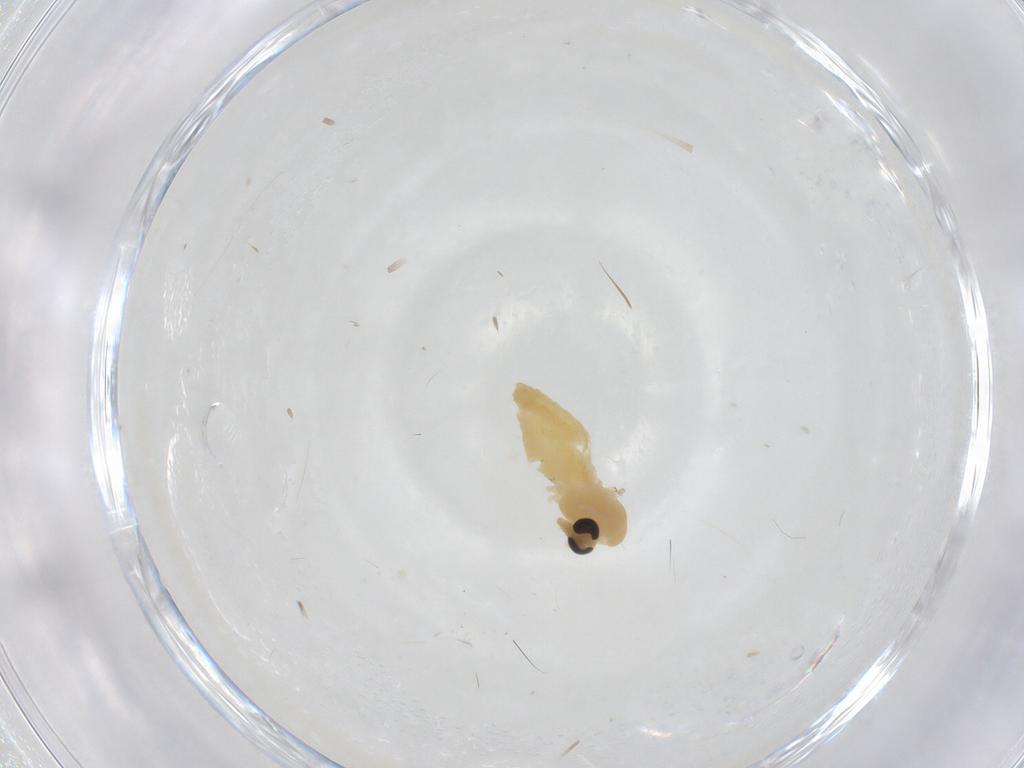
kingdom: Animalia
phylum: Arthropoda
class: Insecta
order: Diptera
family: Chironomidae
